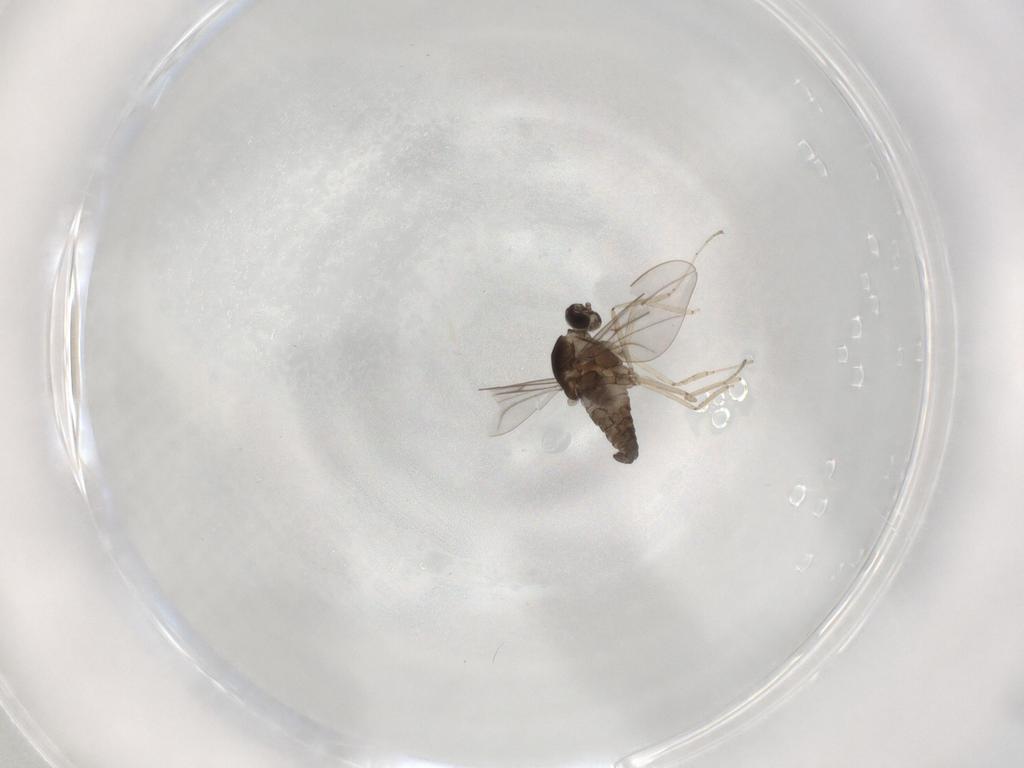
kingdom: Animalia
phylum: Arthropoda
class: Insecta
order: Diptera
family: Cecidomyiidae
